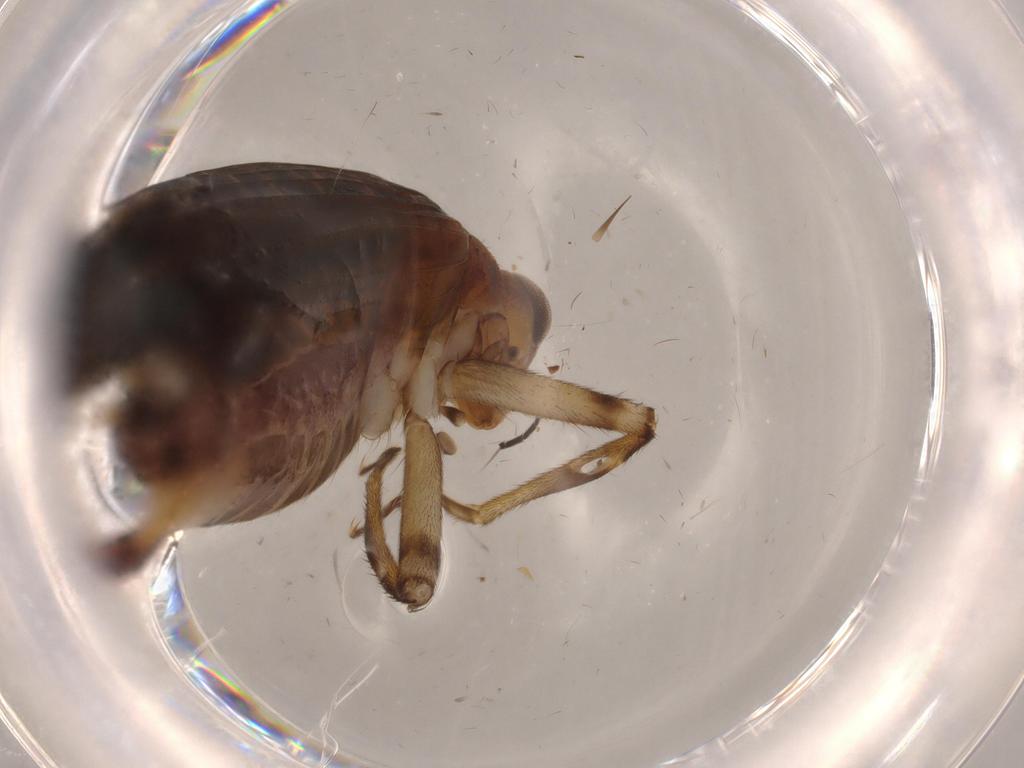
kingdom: Animalia
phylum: Arthropoda
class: Insecta
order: Orthoptera
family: Trigonidiidae
